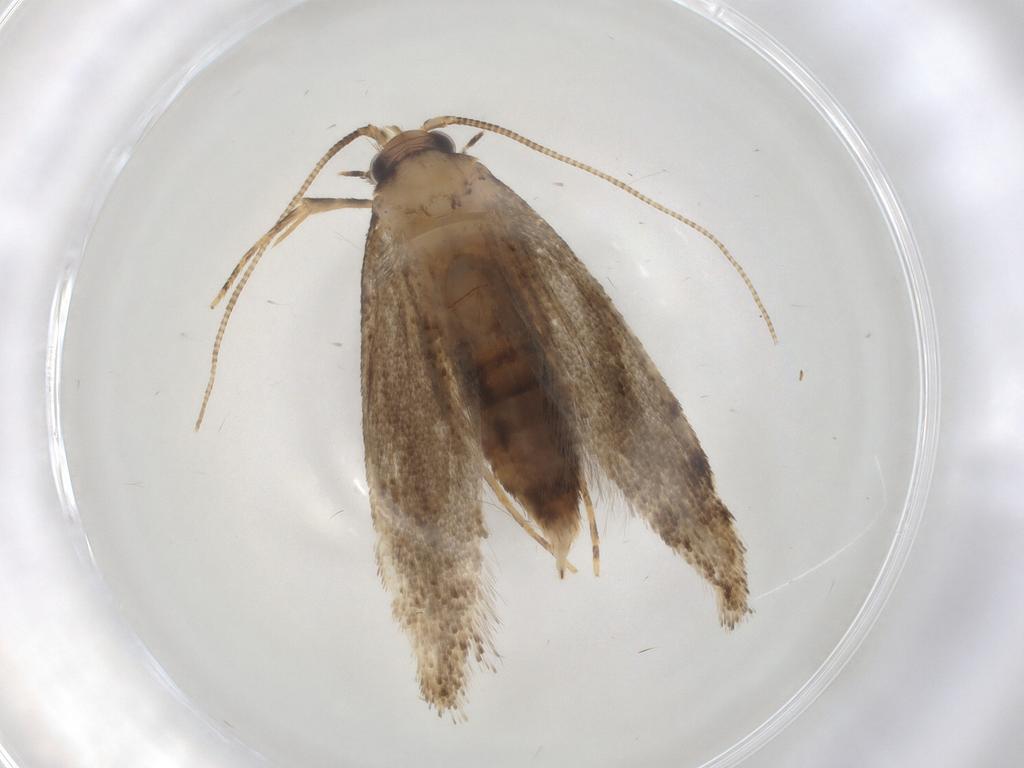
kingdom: Animalia
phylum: Arthropoda
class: Insecta
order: Lepidoptera
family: Tineidae
